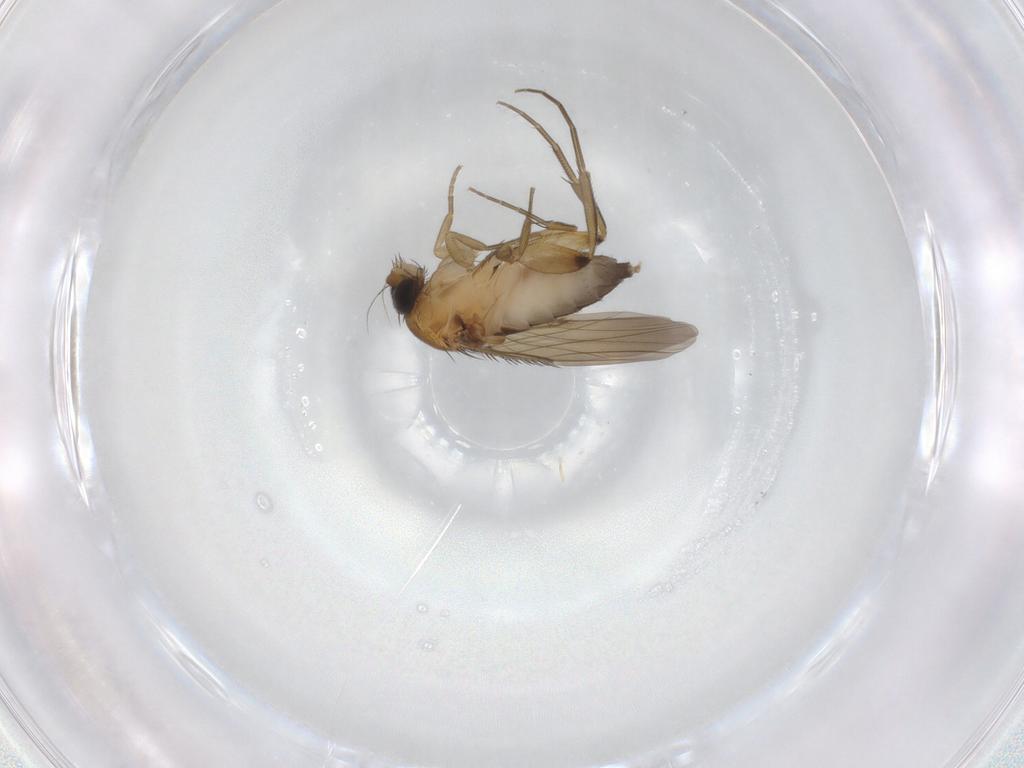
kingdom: Animalia
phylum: Arthropoda
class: Insecta
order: Diptera
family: Phoridae
